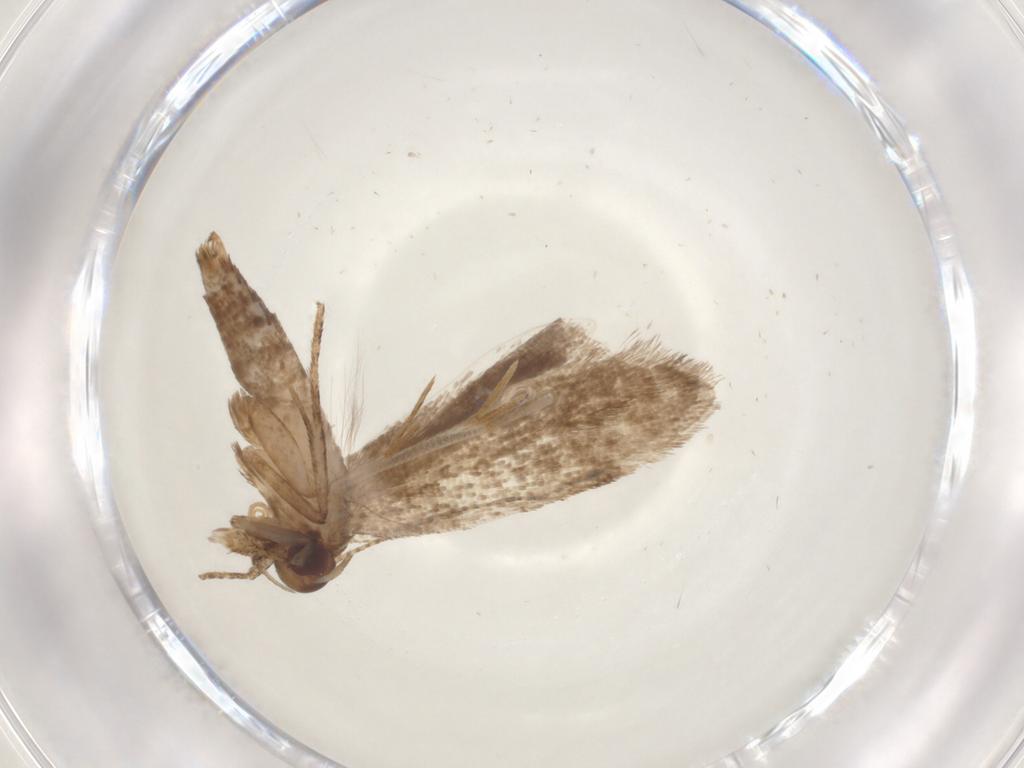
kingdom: Animalia
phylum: Arthropoda
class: Insecta
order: Lepidoptera
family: Gelechiidae
